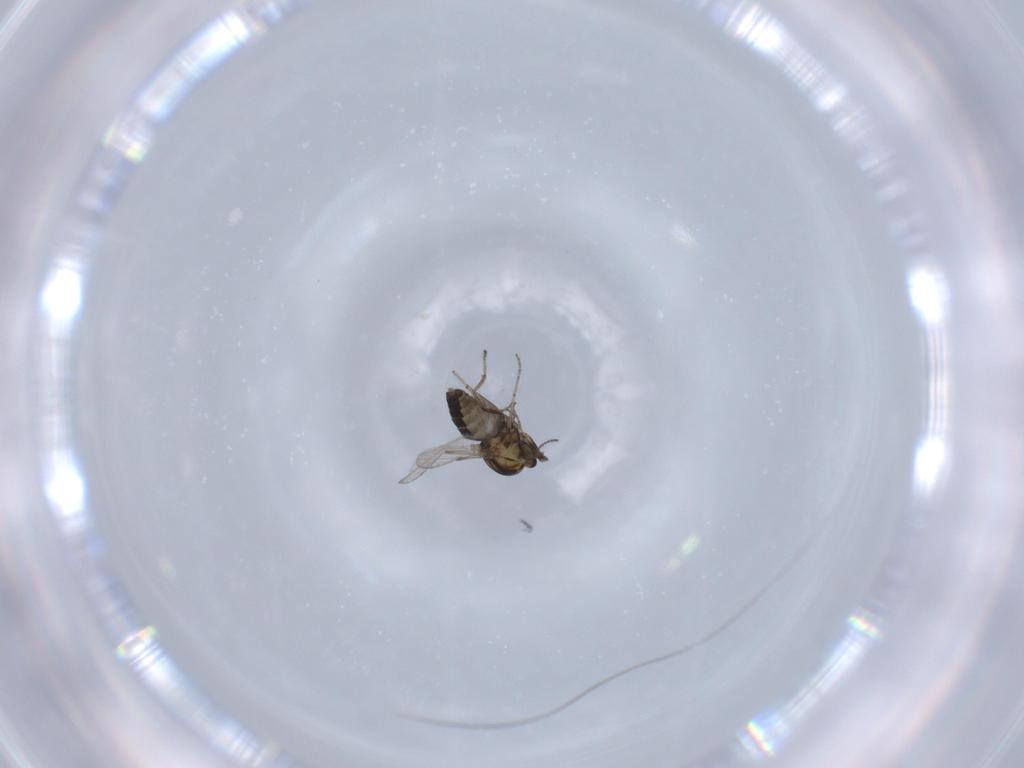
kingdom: Animalia
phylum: Arthropoda
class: Insecta
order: Diptera
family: Ceratopogonidae
